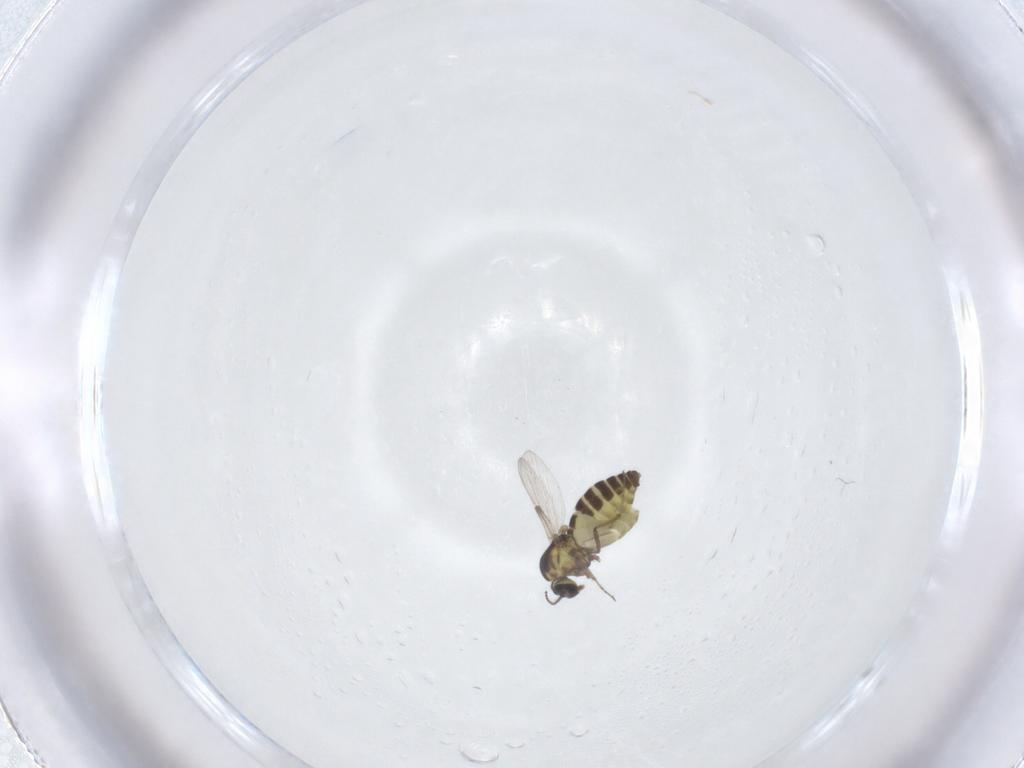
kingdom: Animalia
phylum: Arthropoda
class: Insecta
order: Diptera
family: Ceratopogonidae
